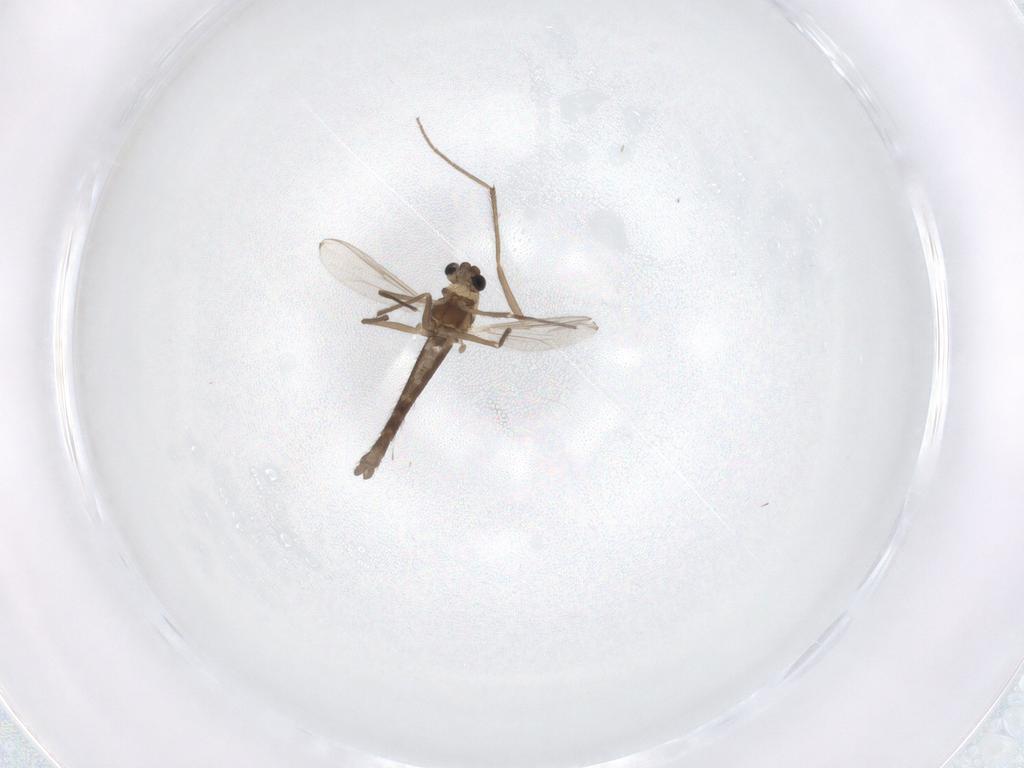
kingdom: Animalia
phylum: Arthropoda
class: Insecta
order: Diptera
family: Chironomidae
